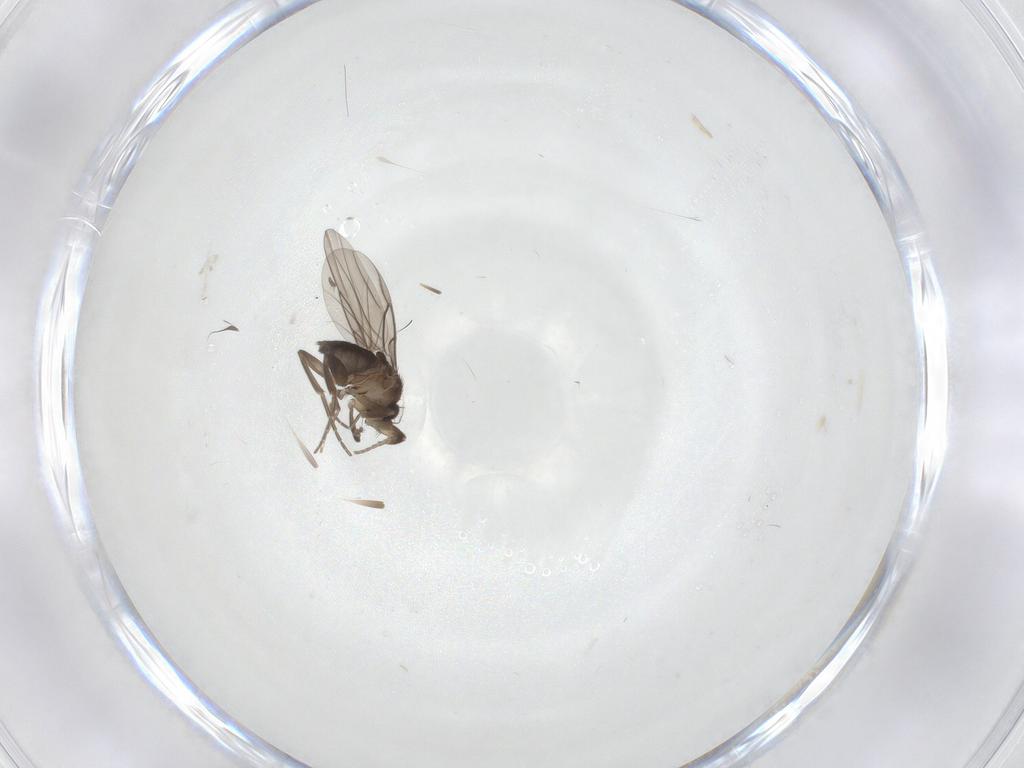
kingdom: Animalia
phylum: Arthropoda
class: Insecta
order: Diptera
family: Phoridae
